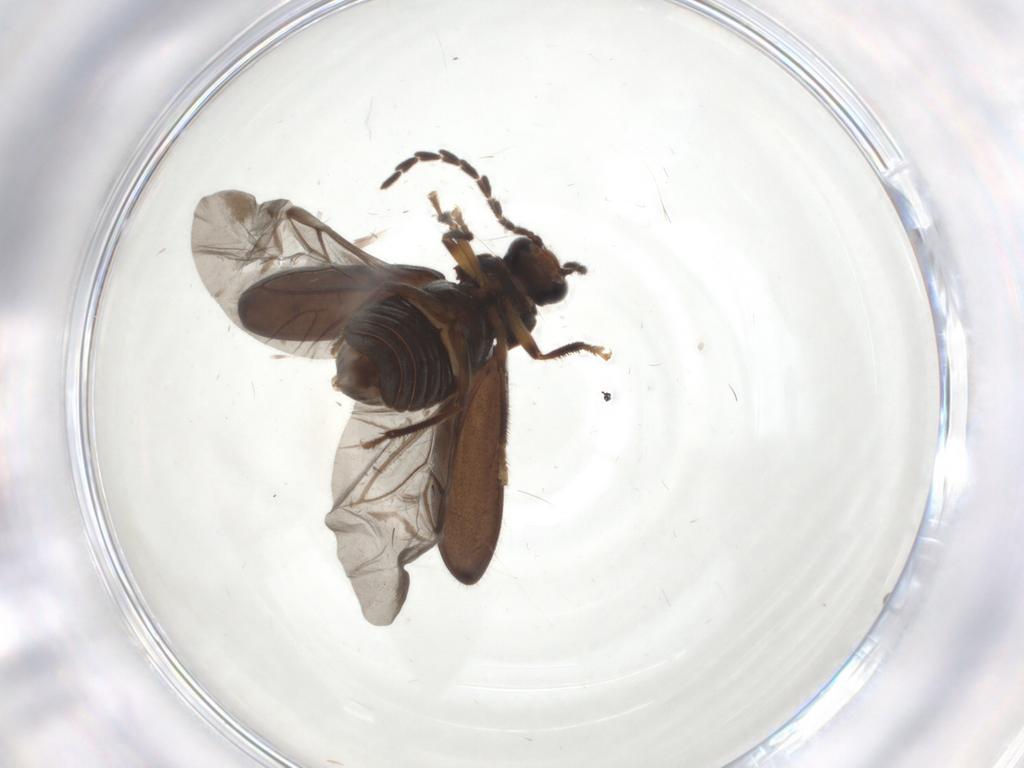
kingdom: Animalia
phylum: Arthropoda
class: Insecta
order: Coleoptera
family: Ptilodactylidae
